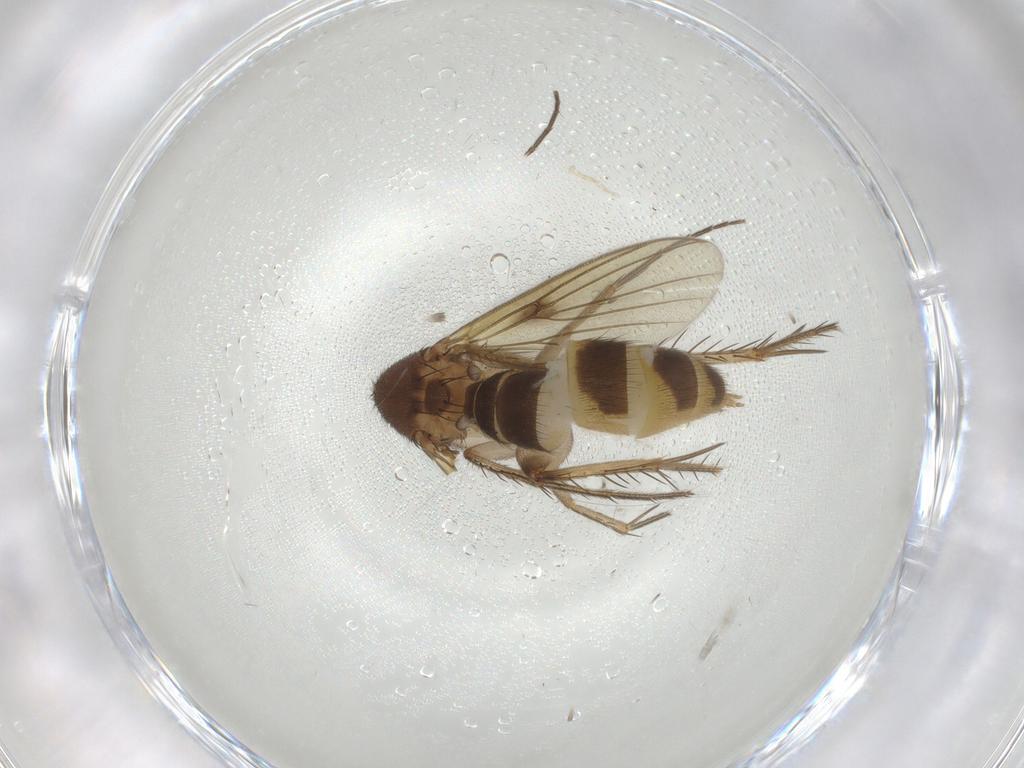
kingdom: Animalia
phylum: Arthropoda
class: Insecta
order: Diptera
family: Mycetophilidae
